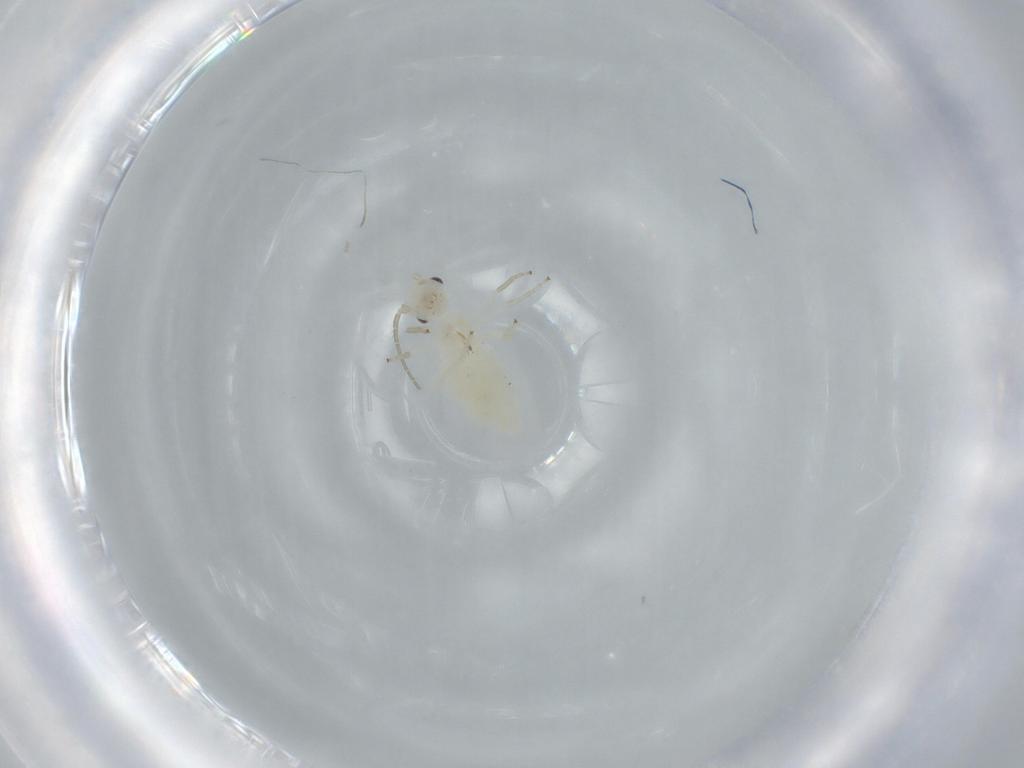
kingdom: Animalia
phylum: Arthropoda
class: Insecta
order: Psocodea
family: Caeciliusidae
